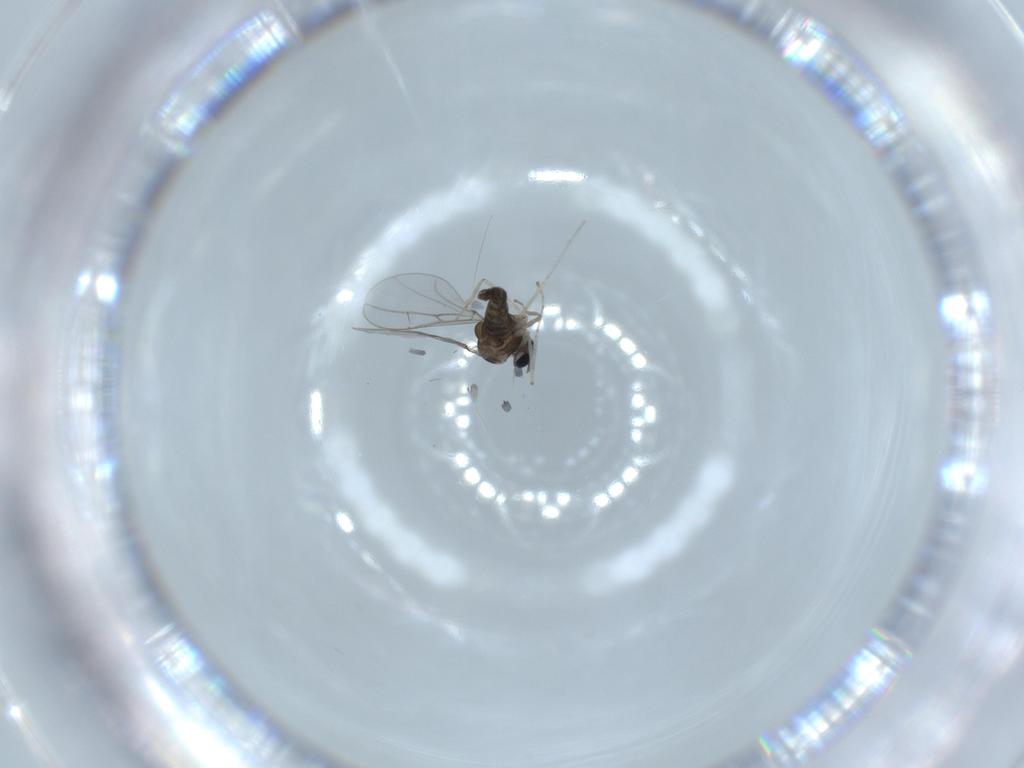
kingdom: Animalia
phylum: Arthropoda
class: Insecta
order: Diptera
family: Cecidomyiidae
